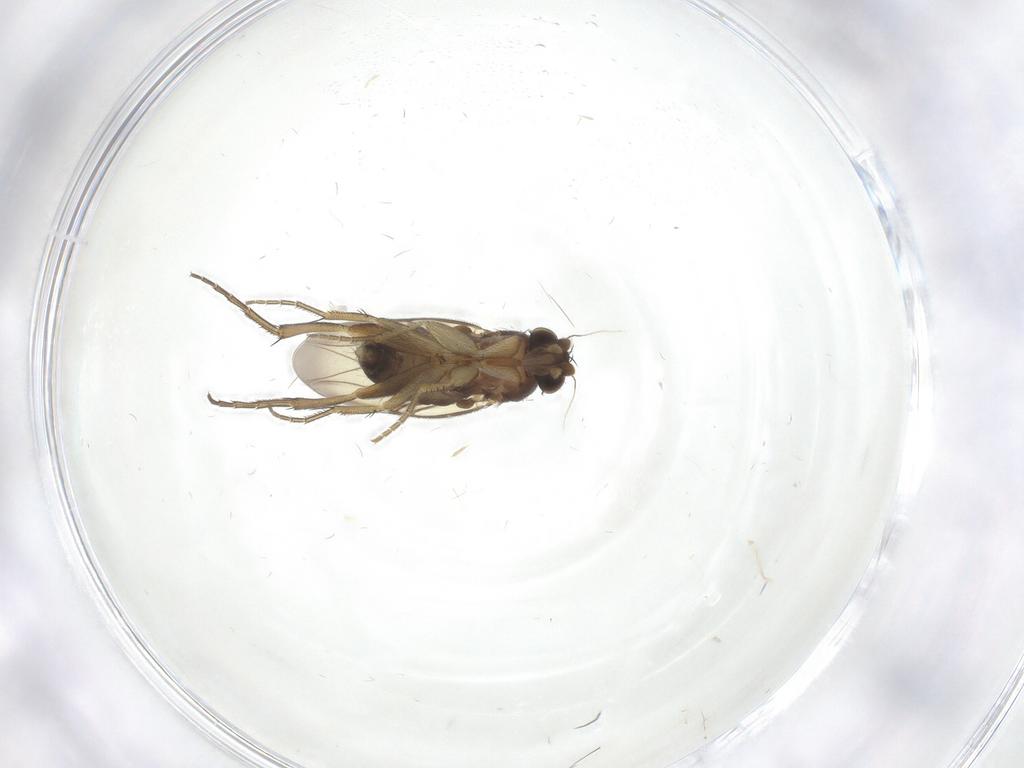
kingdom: Animalia
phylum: Arthropoda
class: Insecta
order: Diptera
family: Phoridae
